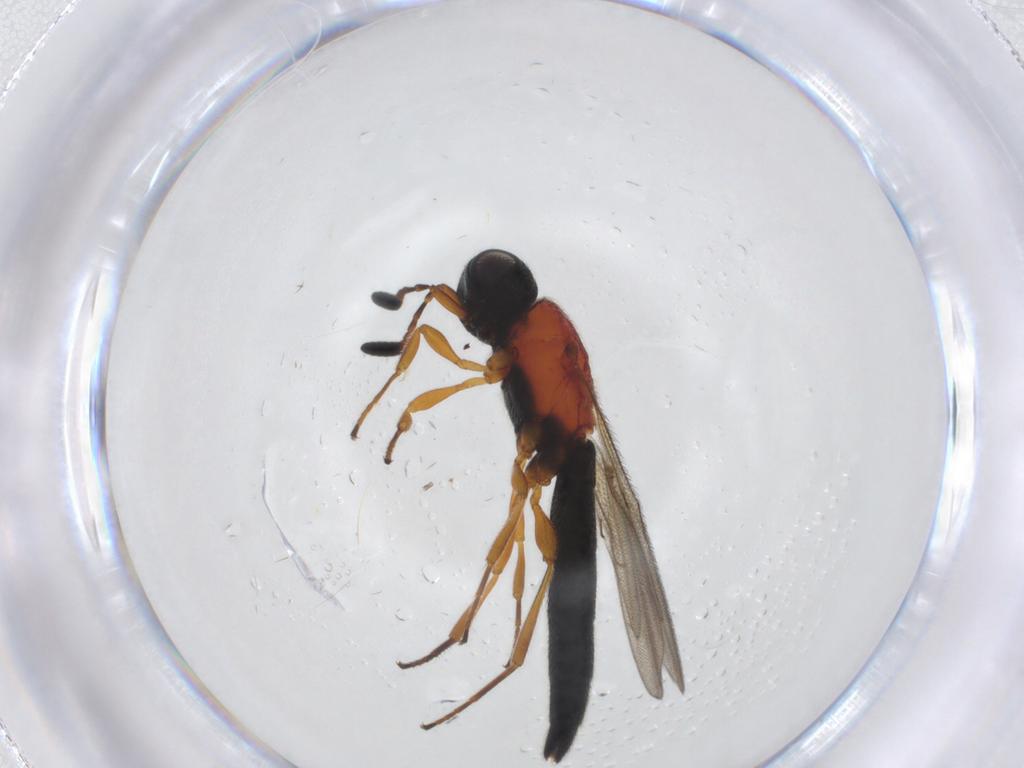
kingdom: Animalia
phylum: Arthropoda
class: Insecta
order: Hymenoptera
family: Scelionidae
